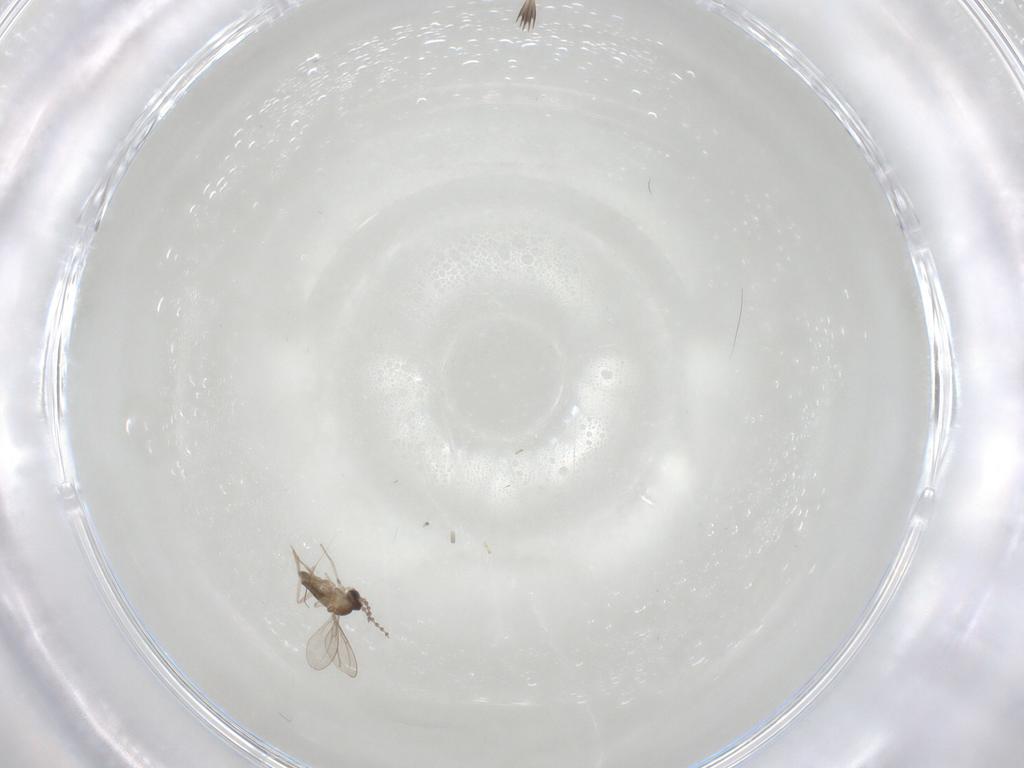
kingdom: Animalia
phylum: Arthropoda
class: Insecta
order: Diptera
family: Cecidomyiidae
